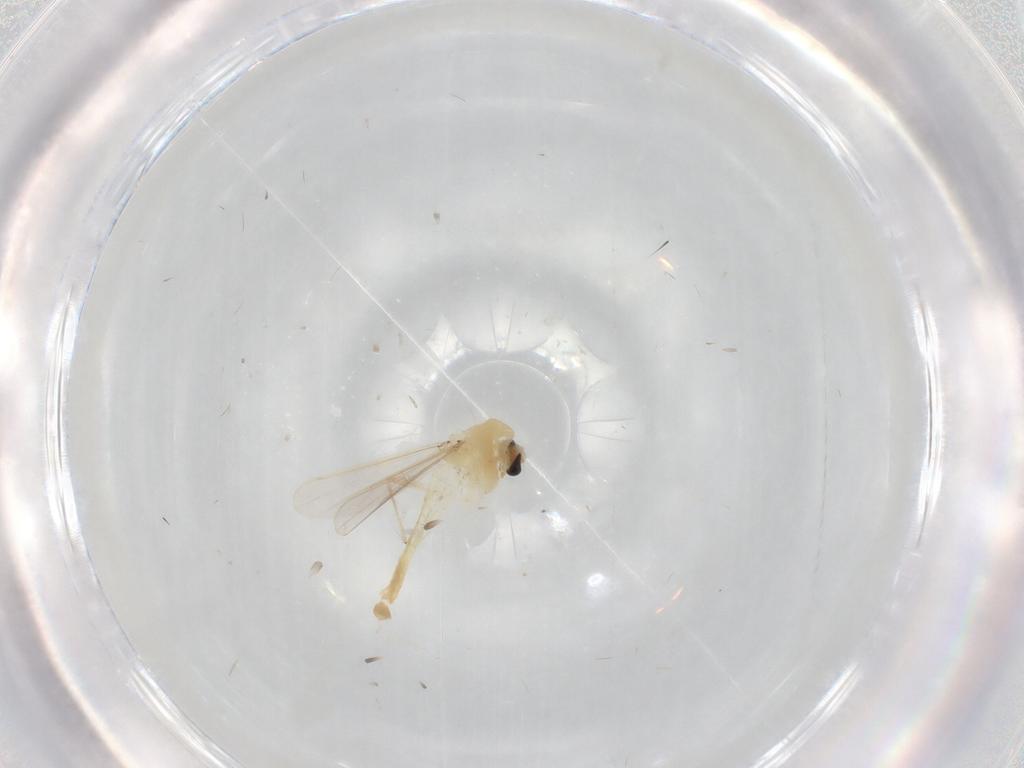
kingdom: Animalia
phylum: Arthropoda
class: Insecta
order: Diptera
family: Chironomidae
